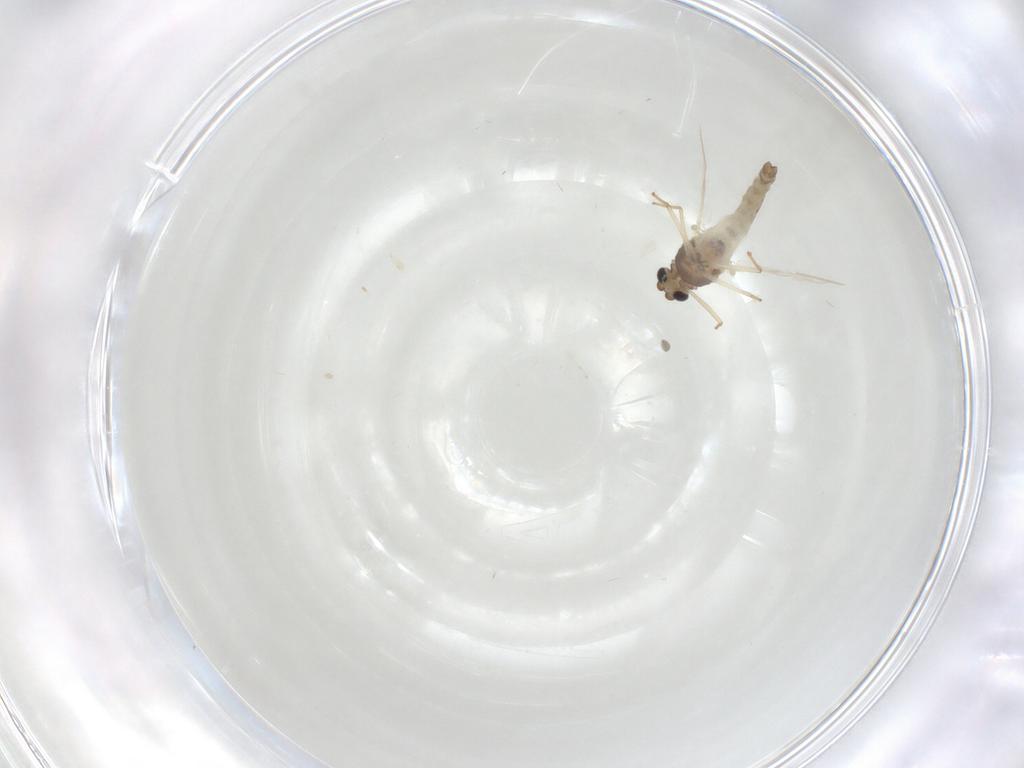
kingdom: Animalia
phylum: Arthropoda
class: Insecta
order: Diptera
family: Chironomidae
